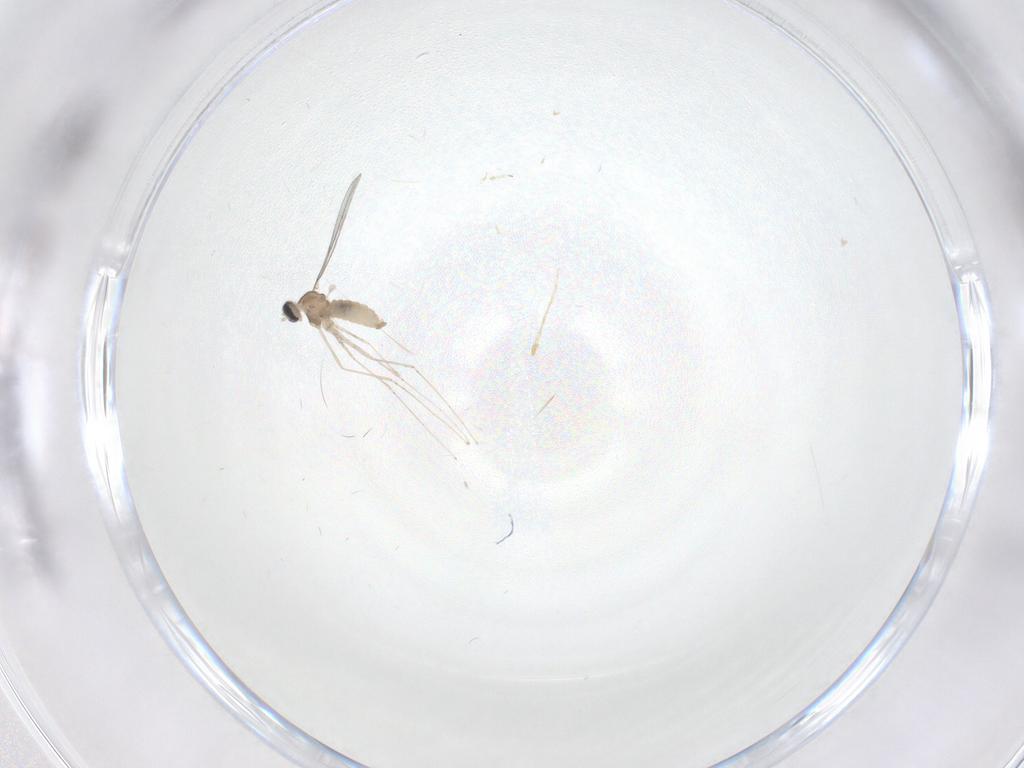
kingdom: Animalia
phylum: Arthropoda
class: Insecta
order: Diptera
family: Cecidomyiidae
